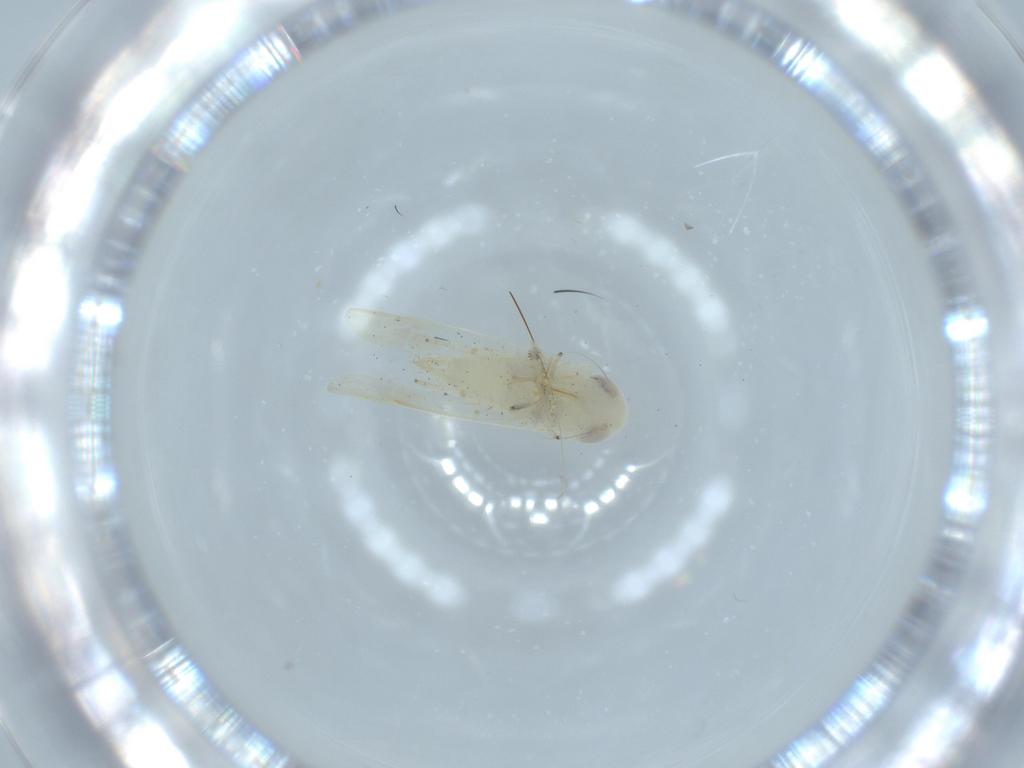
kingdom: Animalia
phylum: Arthropoda
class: Insecta
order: Hemiptera
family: Cicadellidae
